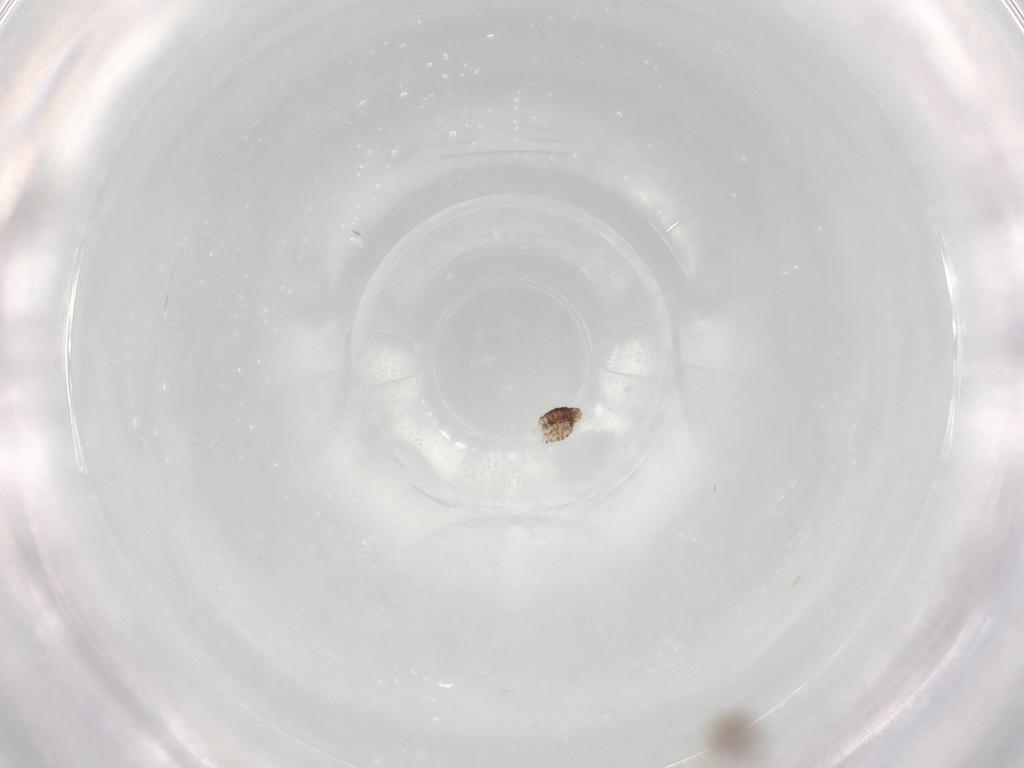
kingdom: Animalia
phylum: Arthropoda
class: Insecta
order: Diptera
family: Chironomidae
